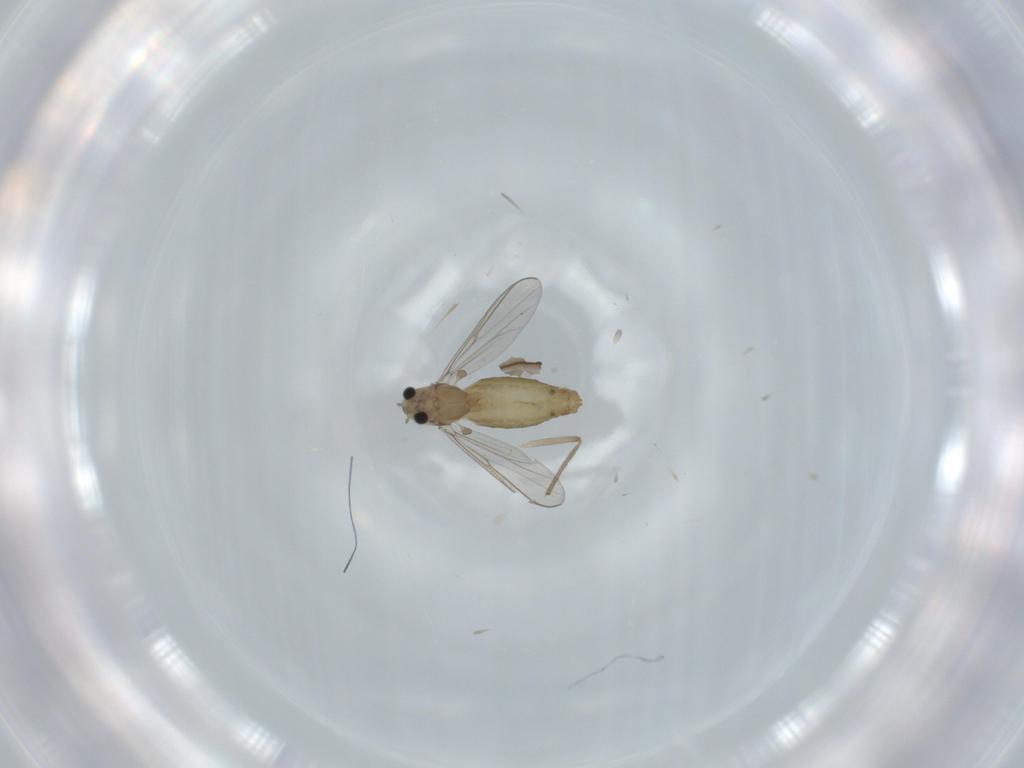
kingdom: Animalia
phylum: Arthropoda
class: Insecta
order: Diptera
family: Chironomidae
